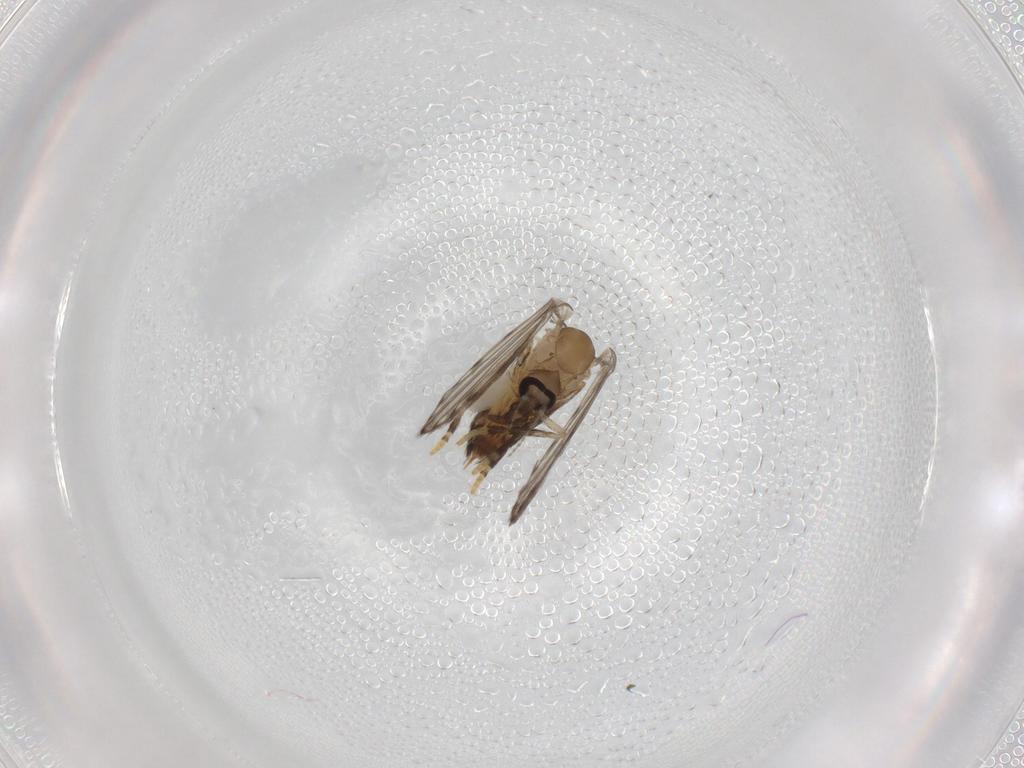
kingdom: Animalia
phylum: Arthropoda
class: Insecta
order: Diptera
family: Psychodidae
